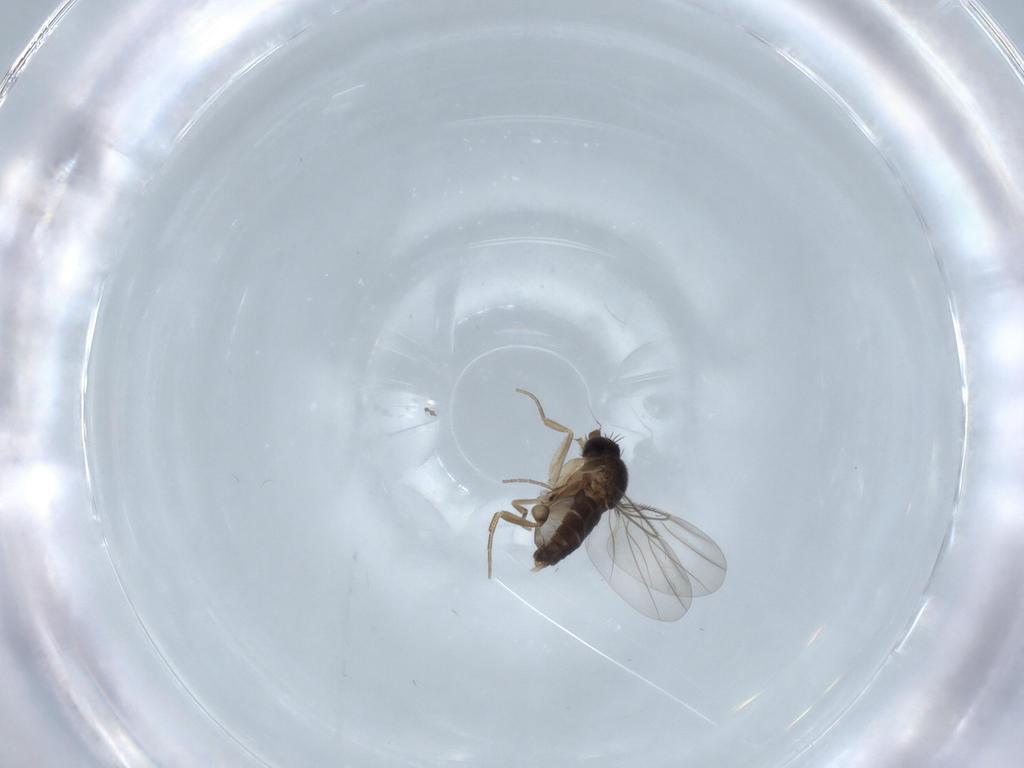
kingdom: Animalia
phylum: Arthropoda
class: Insecta
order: Diptera
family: Phoridae
